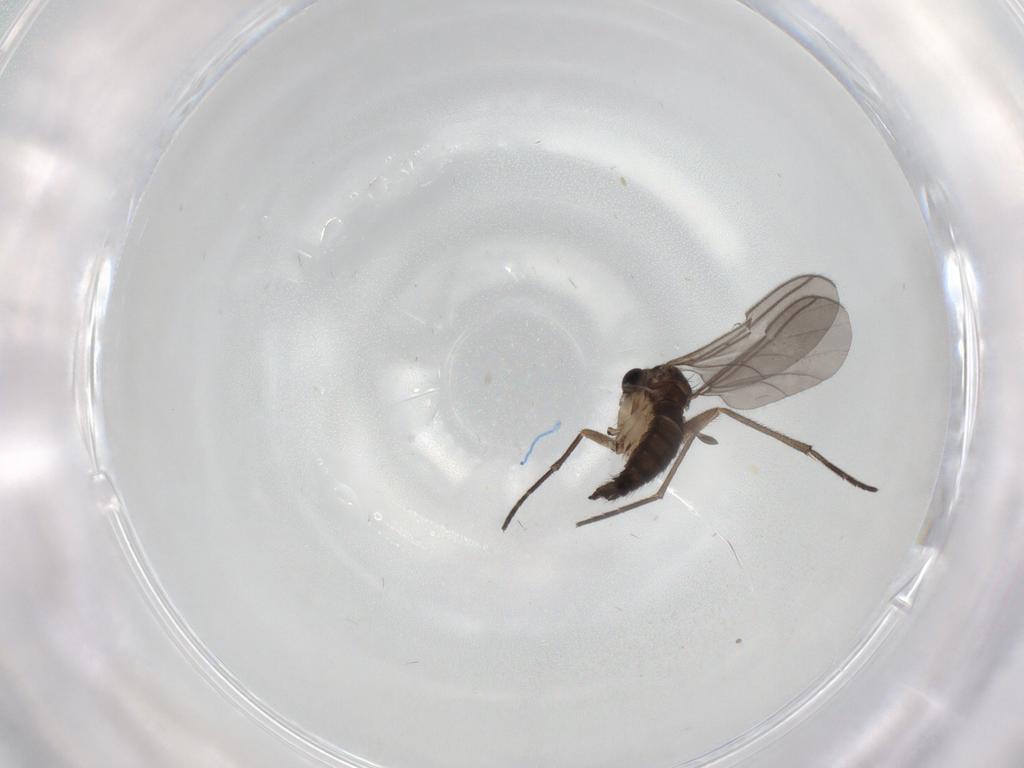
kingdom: Animalia
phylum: Arthropoda
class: Insecta
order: Diptera
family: Sciaridae
